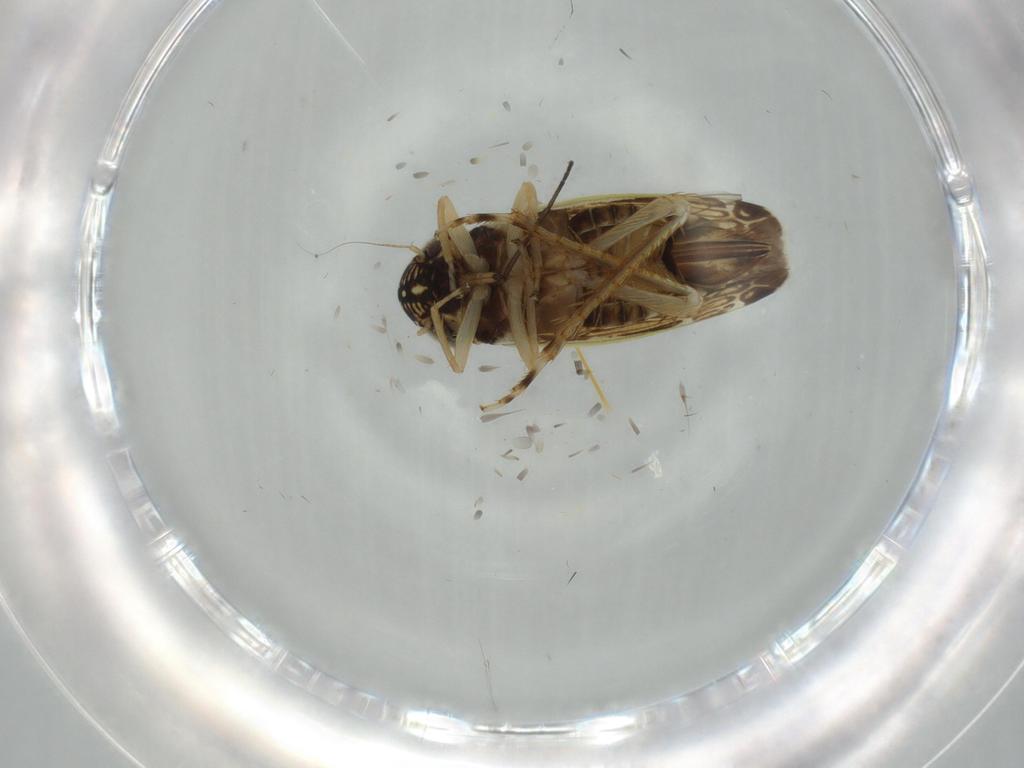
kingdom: Animalia
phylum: Arthropoda
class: Insecta
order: Hemiptera
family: Cicadellidae
